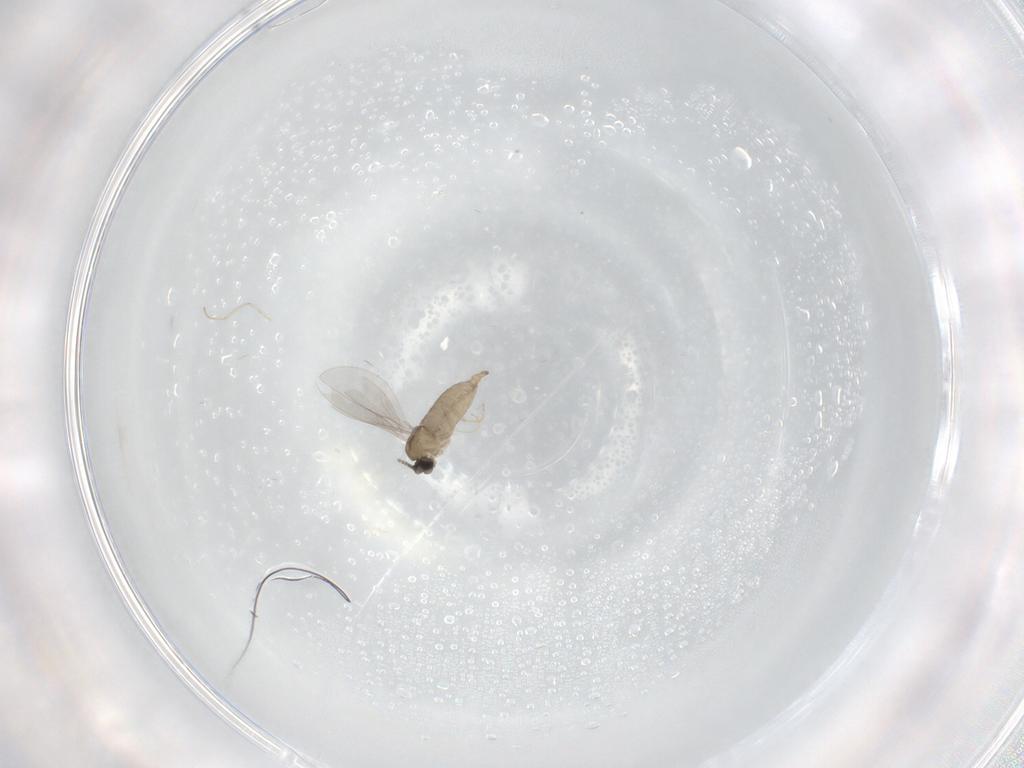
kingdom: Animalia
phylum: Arthropoda
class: Insecta
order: Diptera
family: Cecidomyiidae
